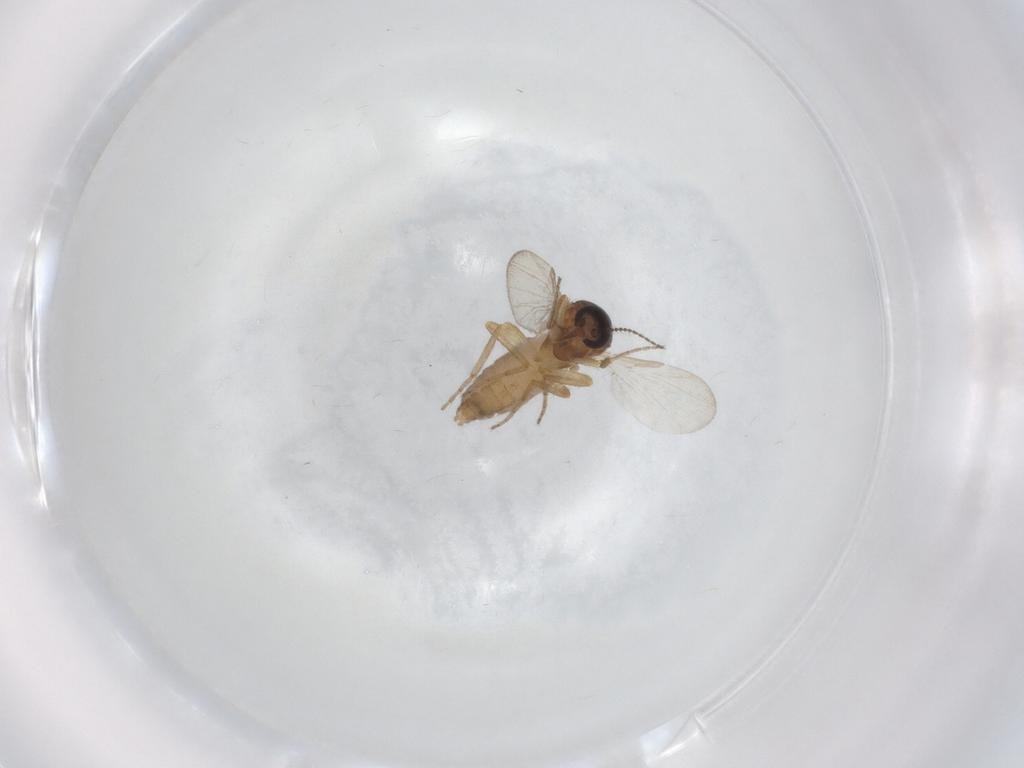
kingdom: Animalia
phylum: Arthropoda
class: Insecta
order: Diptera
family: Ceratopogonidae
